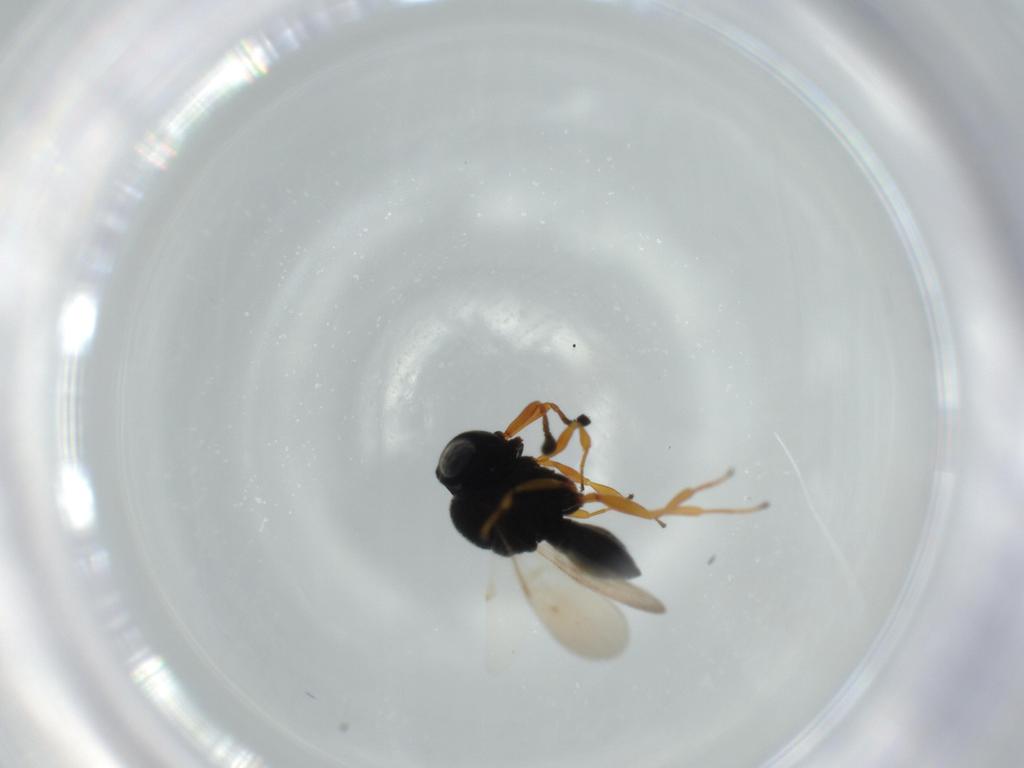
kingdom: Animalia
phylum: Arthropoda
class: Insecta
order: Hymenoptera
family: Scelionidae
